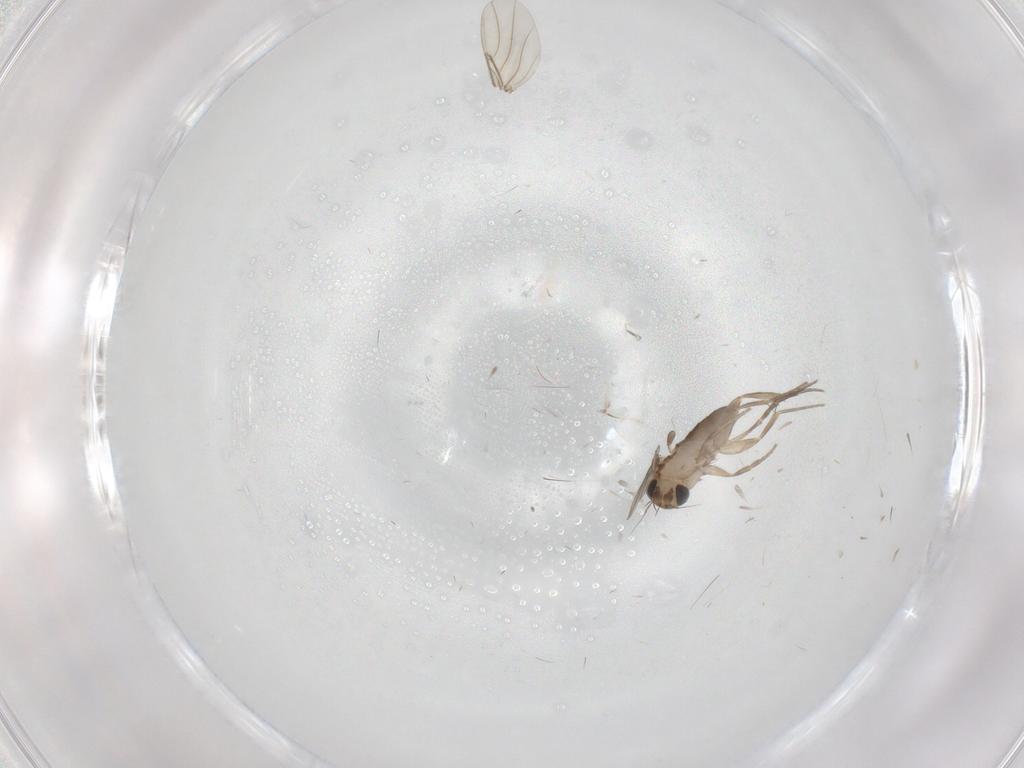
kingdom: Animalia
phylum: Arthropoda
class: Insecta
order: Diptera
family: Phoridae
